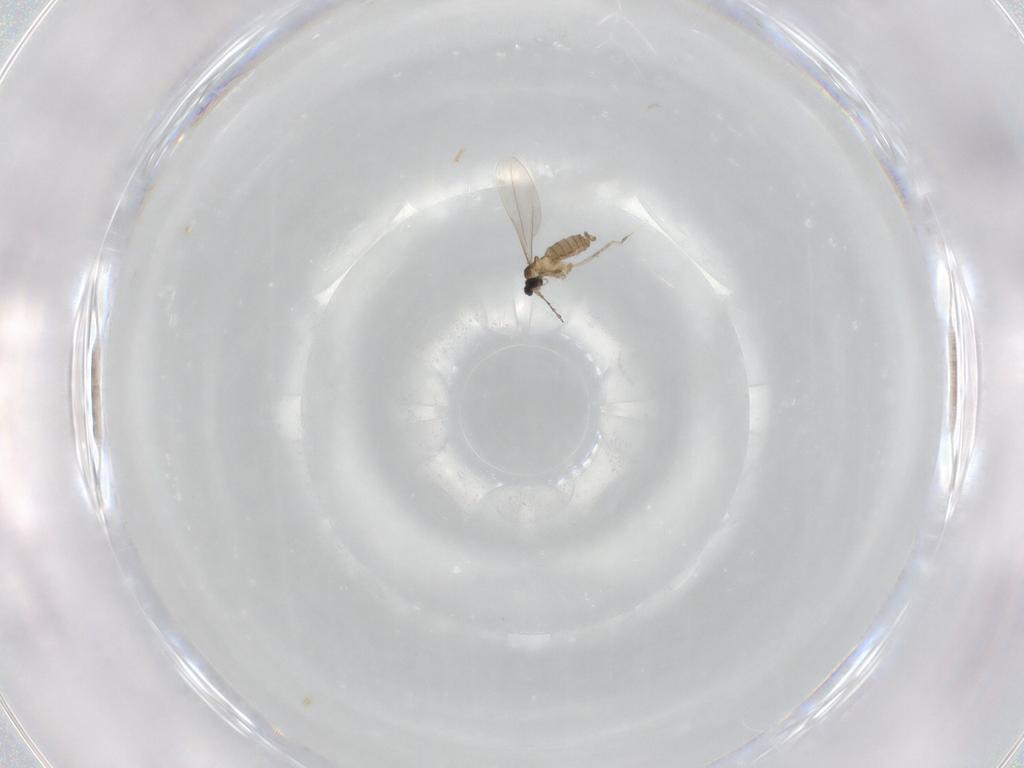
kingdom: Animalia
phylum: Arthropoda
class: Insecta
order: Diptera
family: Cecidomyiidae
